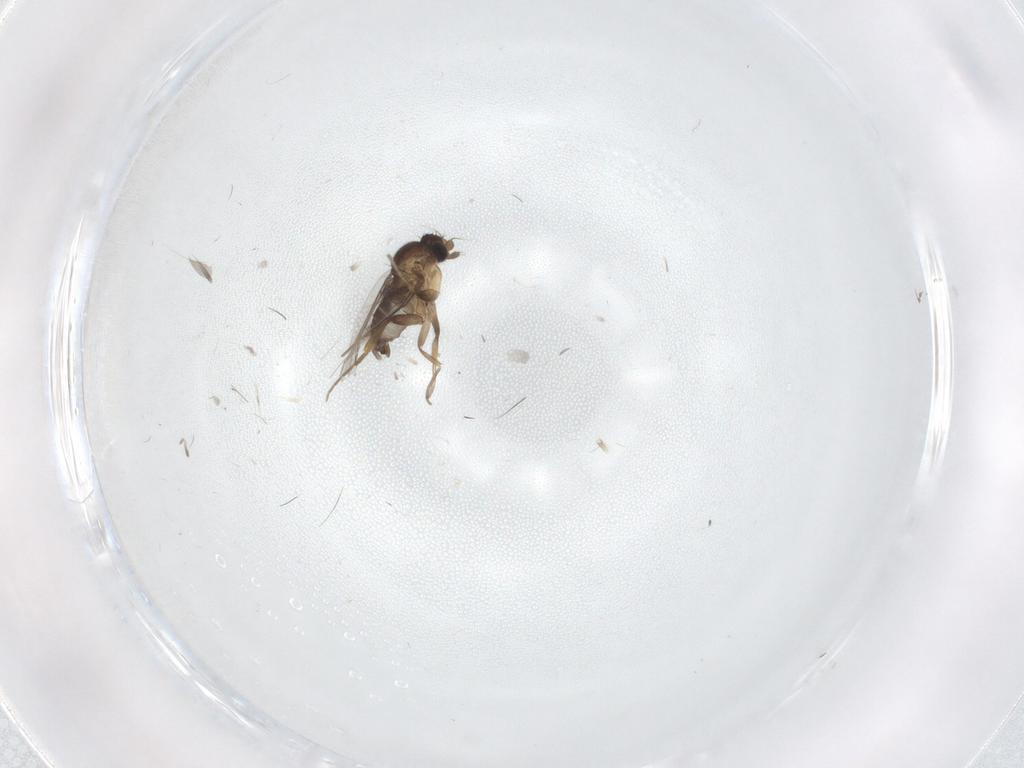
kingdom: Animalia
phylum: Arthropoda
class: Insecta
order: Diptera
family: Phoridae
